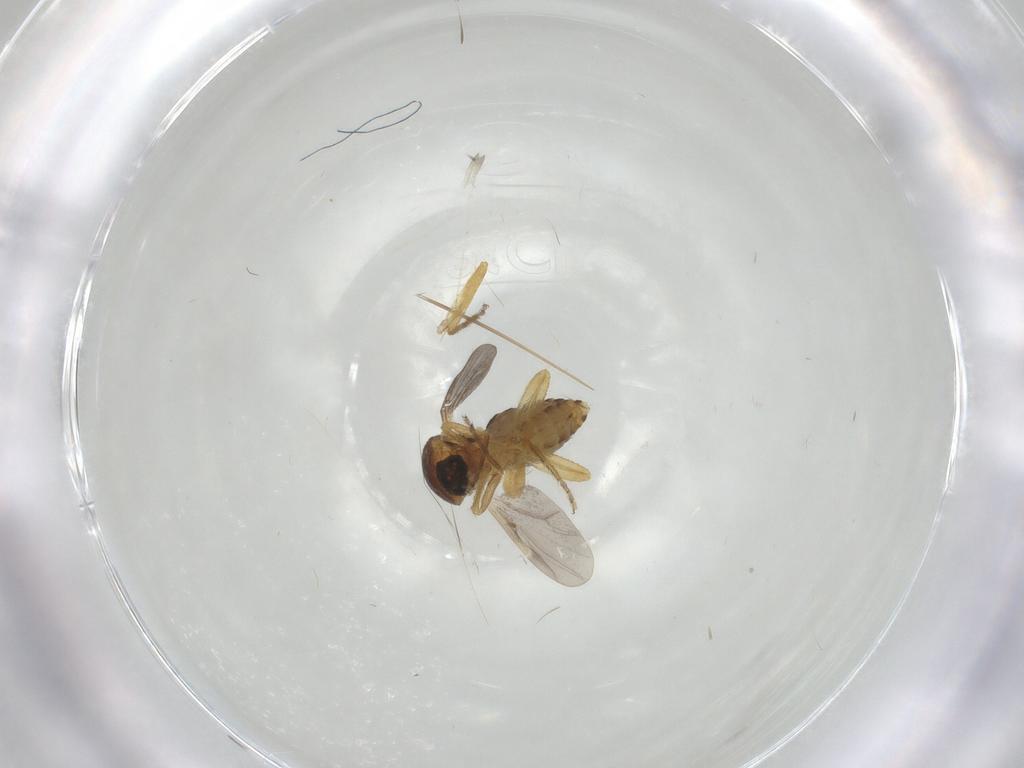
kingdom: Animalia
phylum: Arthropoda
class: Insecta
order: Diptera
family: Ceratopogonidae
